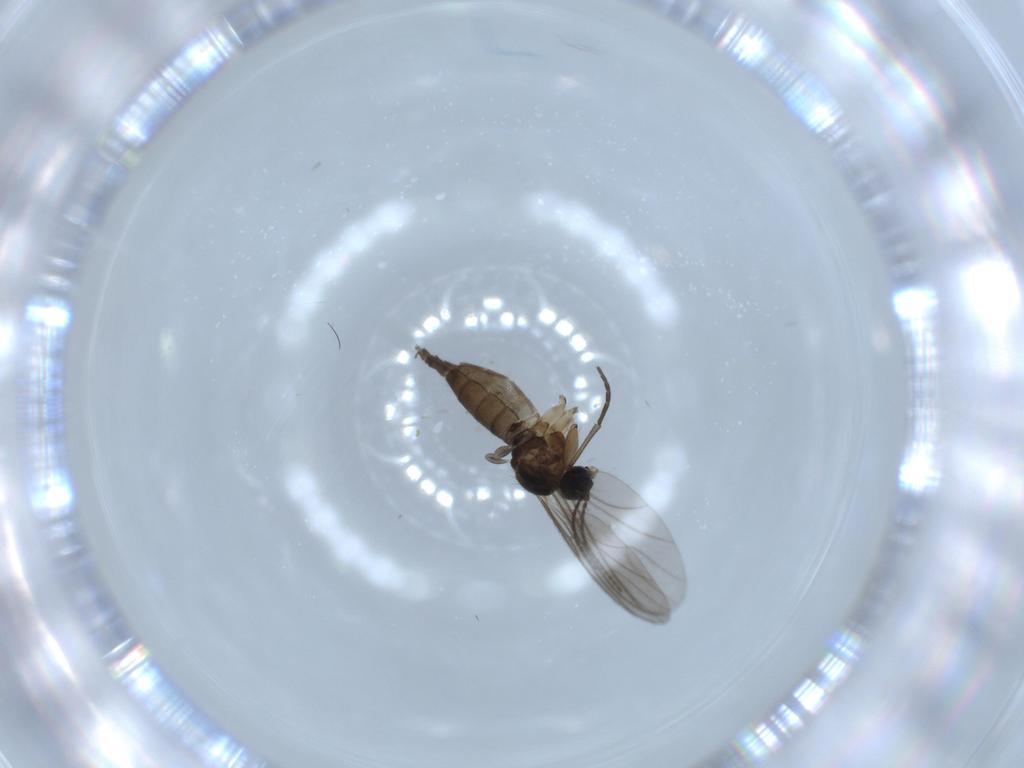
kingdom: Animalia
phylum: Arthropoda
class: Insecta
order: Diptera
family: Sciaridae
